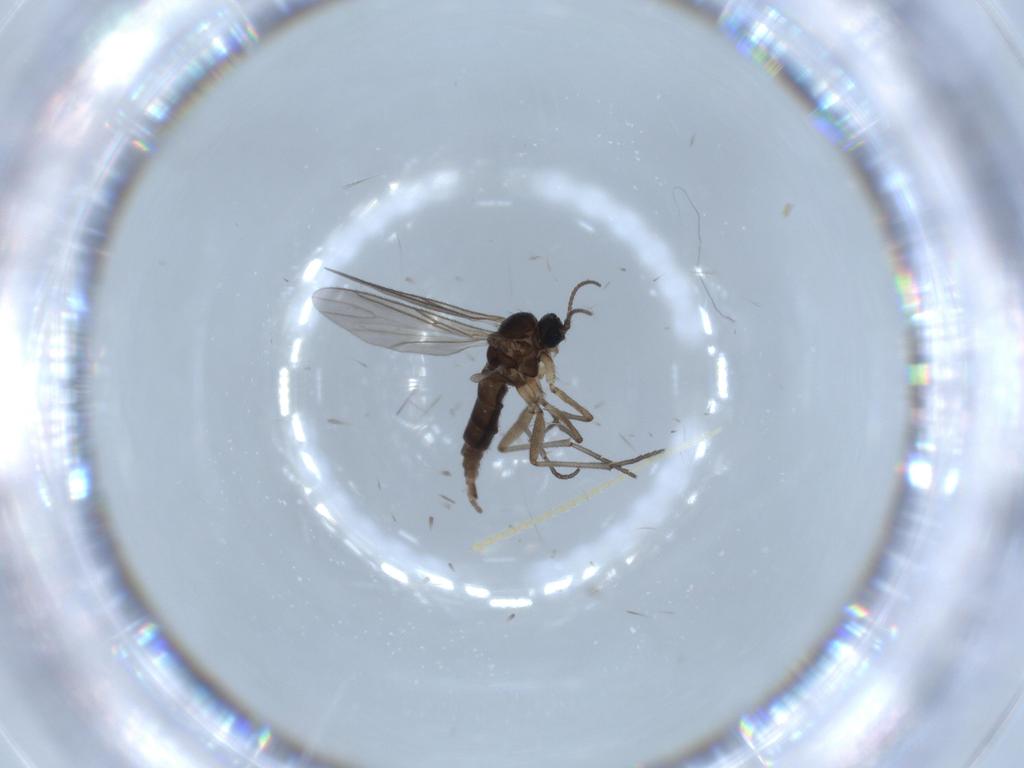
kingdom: Animalia
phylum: Arthropoda
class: Insecta
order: Diptera
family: Sciaridae
